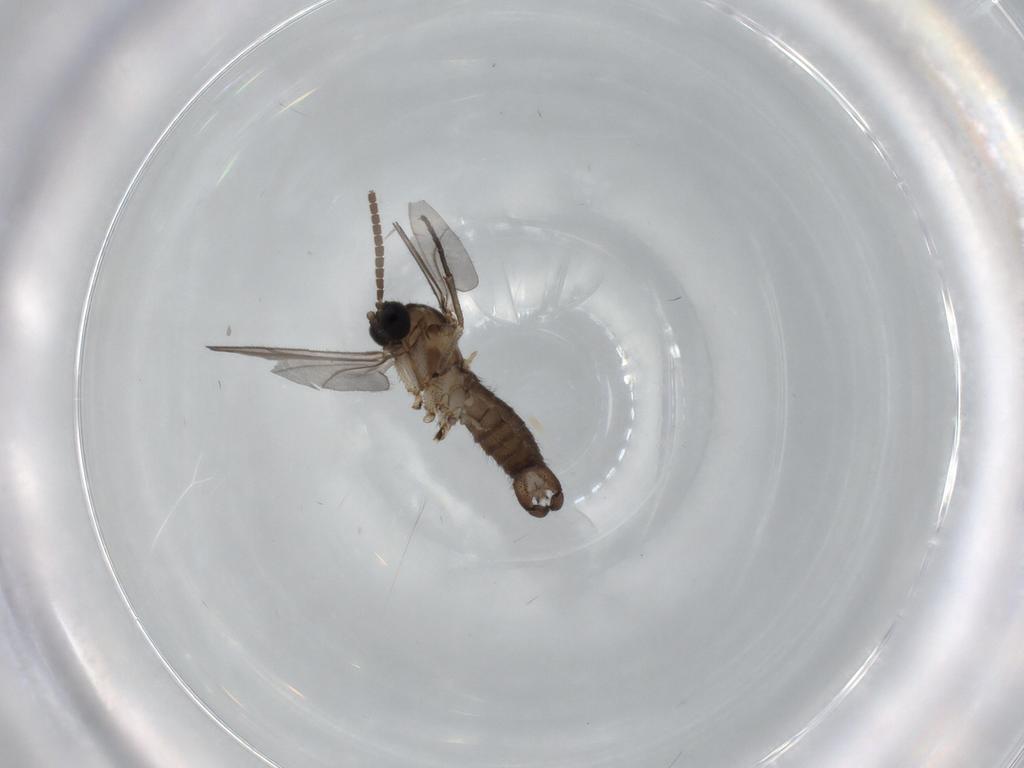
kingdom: Animalia
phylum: Arthropoda
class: Insecta
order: Diptera
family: Sciaridae
